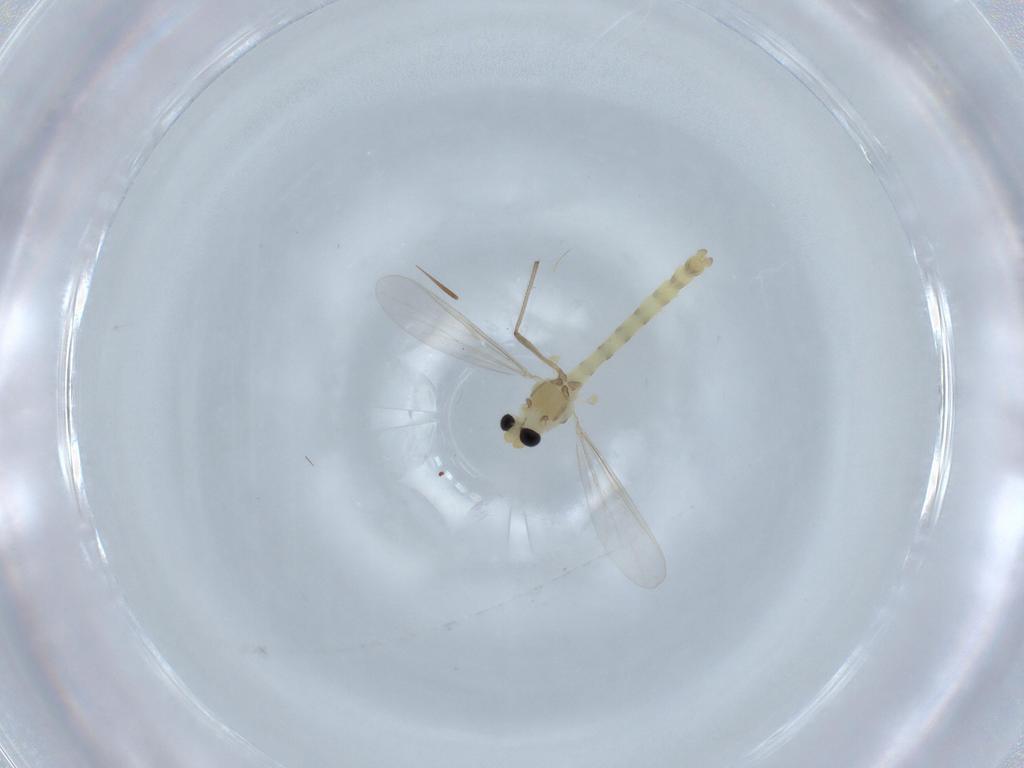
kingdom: Animalia
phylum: Arthropoda
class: Insecta
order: Diptera
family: Chironomidae
